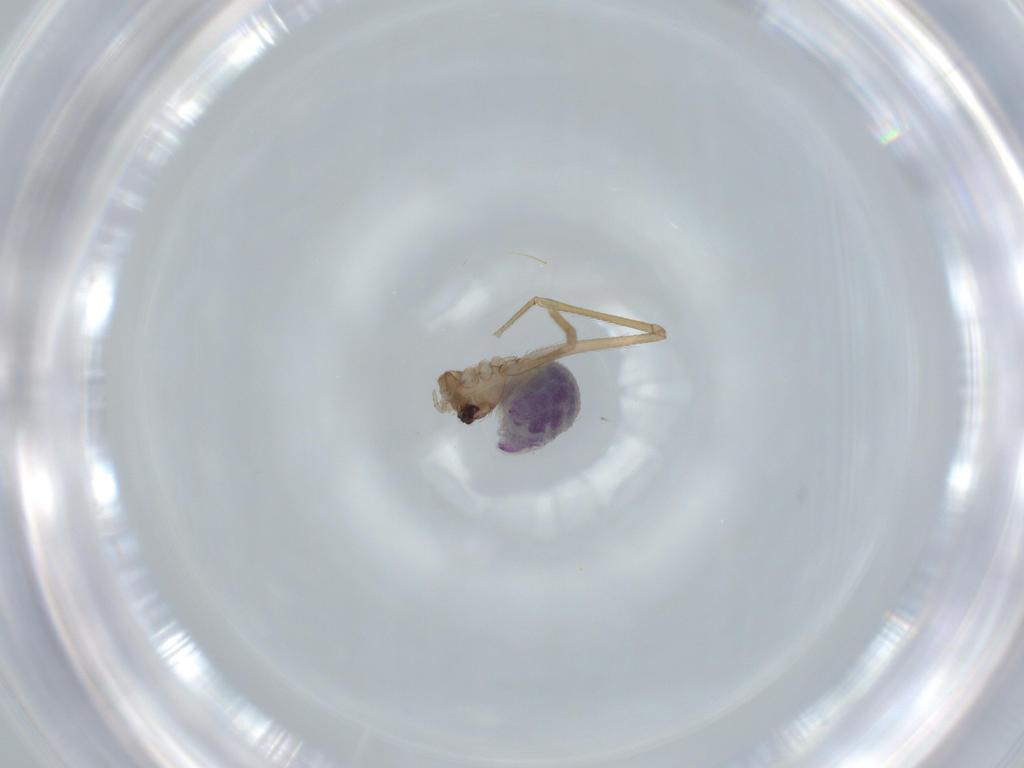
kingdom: Animalia
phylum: Arthropoda
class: Arachnida
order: Araneae
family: Pholcidae
